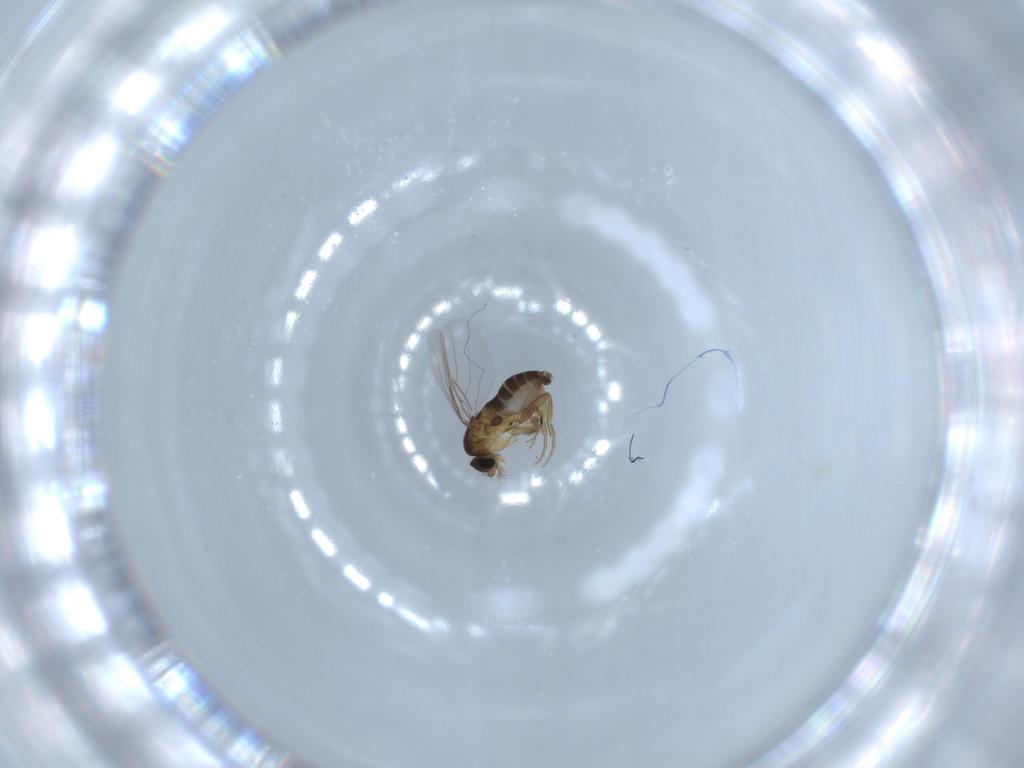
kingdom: Animalia
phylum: Arthropoda
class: Insecta
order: Diptera
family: Phoridae
